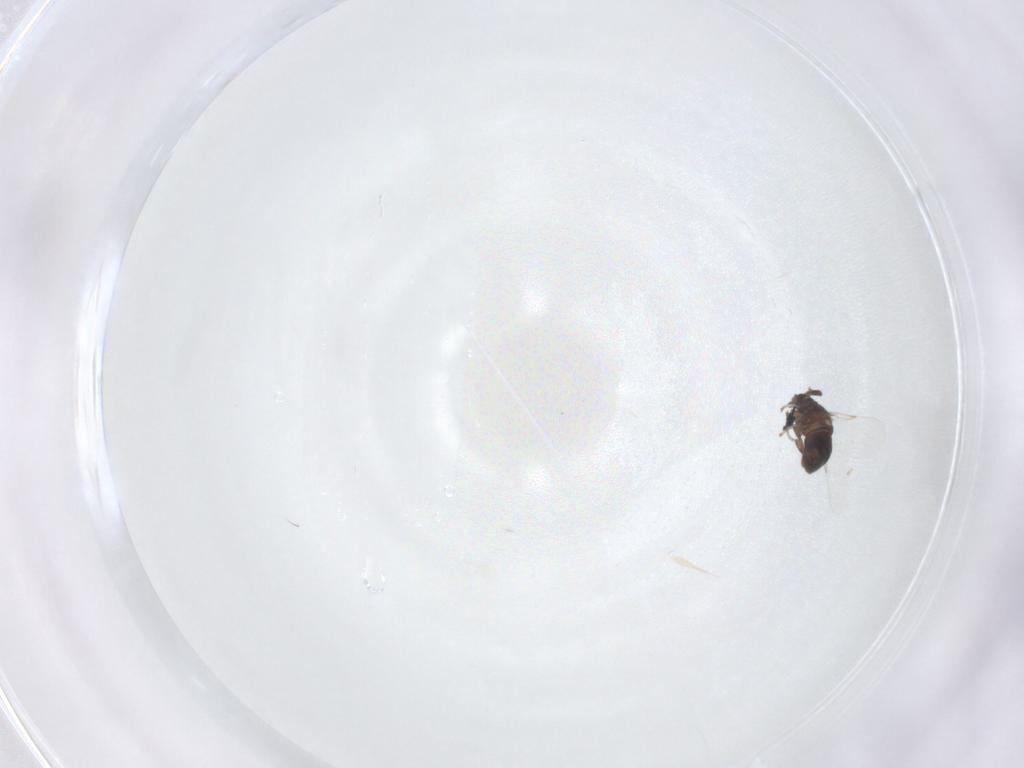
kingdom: Animalia
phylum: Arthropoda
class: Insecta
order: Diptera
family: Scatopsidae
